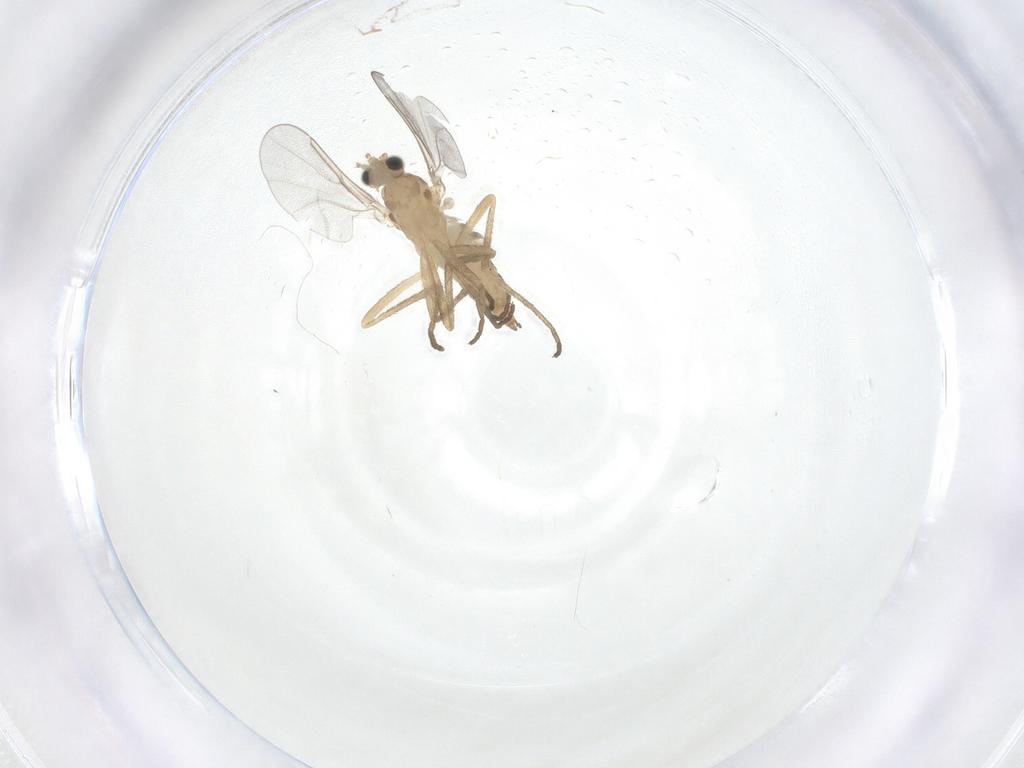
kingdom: Animalia
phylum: Arthropoda
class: Insecta
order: Diptera
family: Cecidomyiidae
